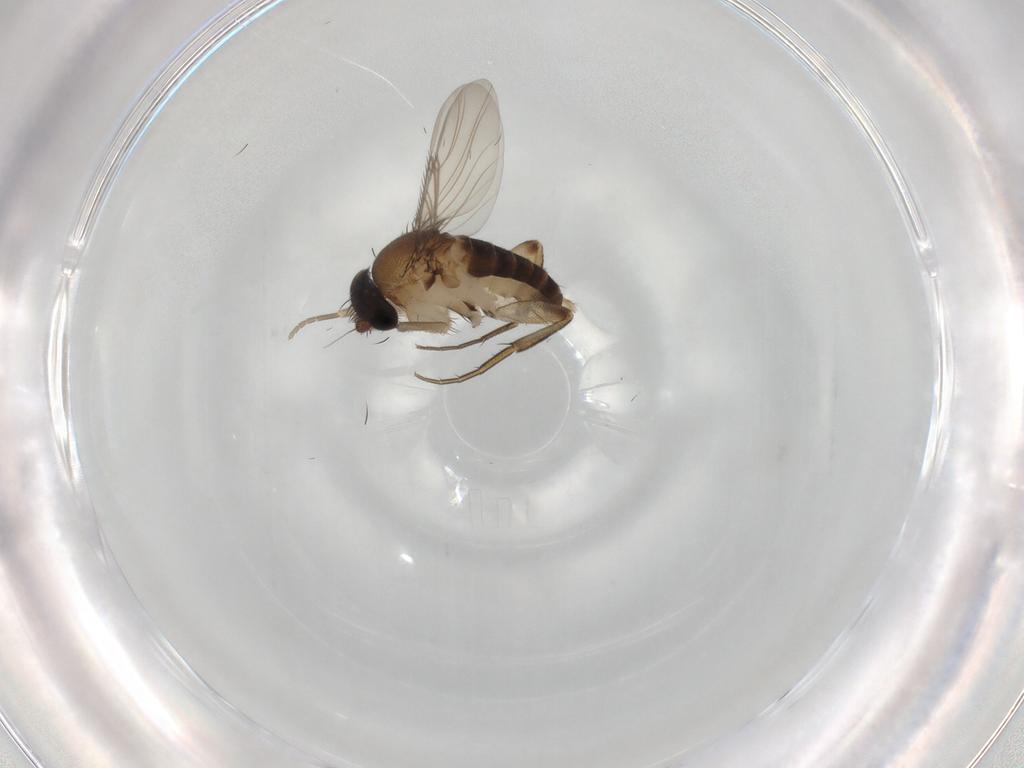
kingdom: Animalia
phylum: Arthropoda
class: Insecta
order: Diptera
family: Phoridae
